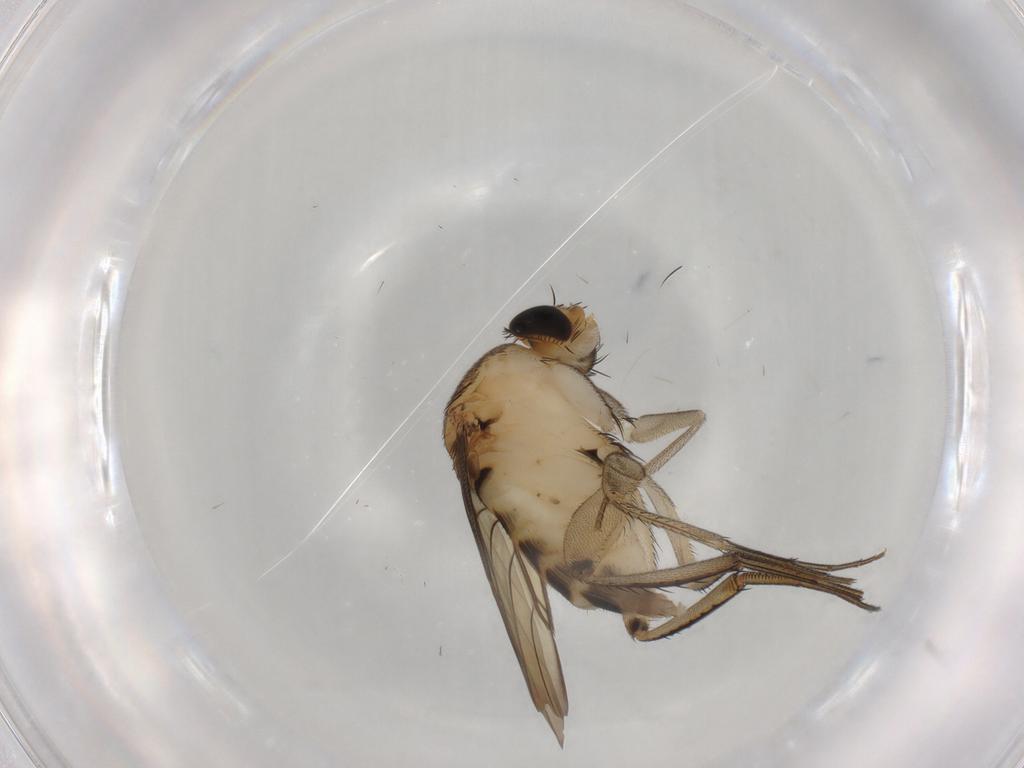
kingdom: Animalia
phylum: Arthropoda
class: Insecta
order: Diptera
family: Phoridae
